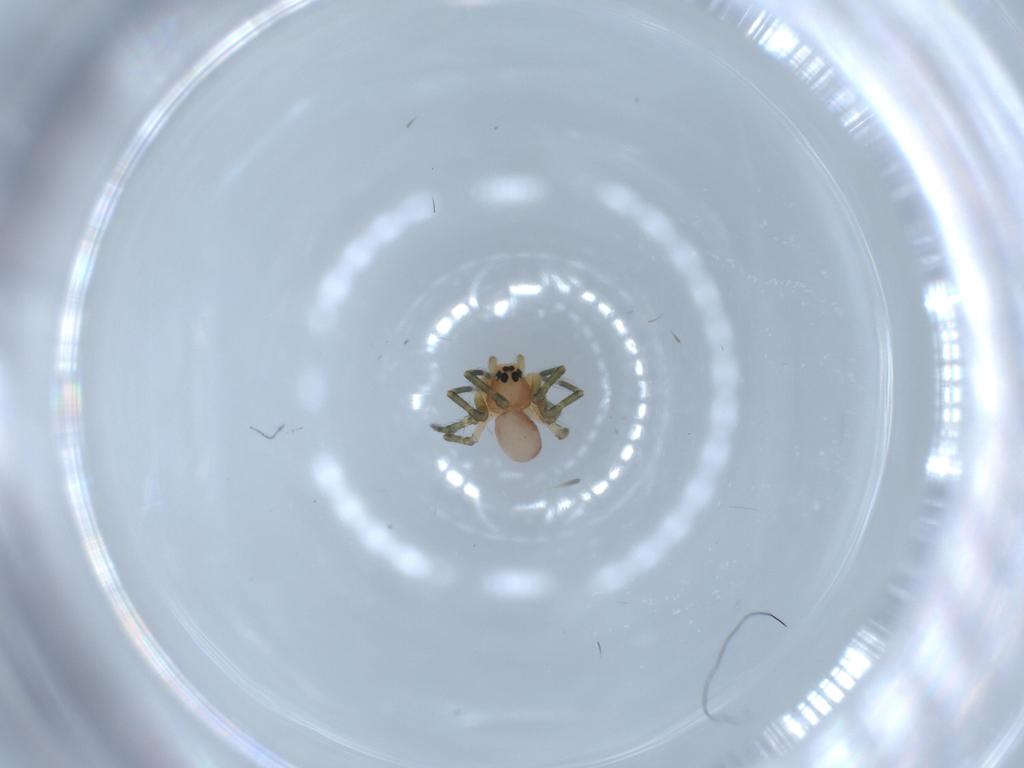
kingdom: Animalia
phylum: Arthropoda
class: Arachnida
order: Araneae
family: Linyphiidae
